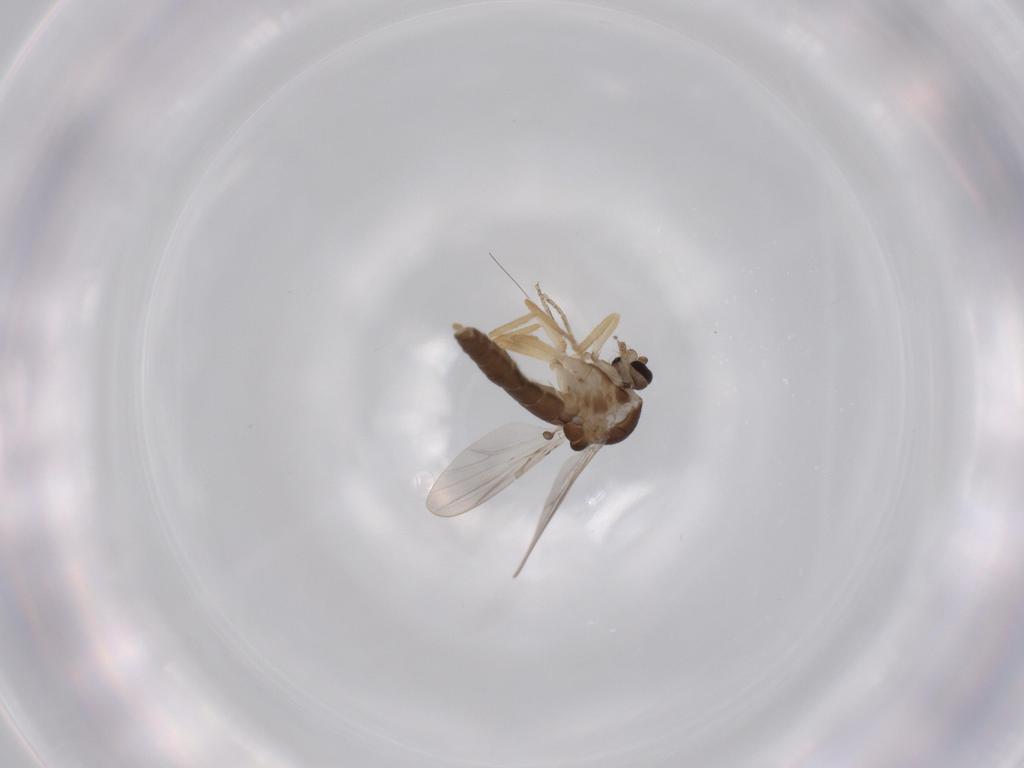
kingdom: Animalia
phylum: Arthropoda
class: Insecta
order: Diptera
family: Ceratopogonidae
